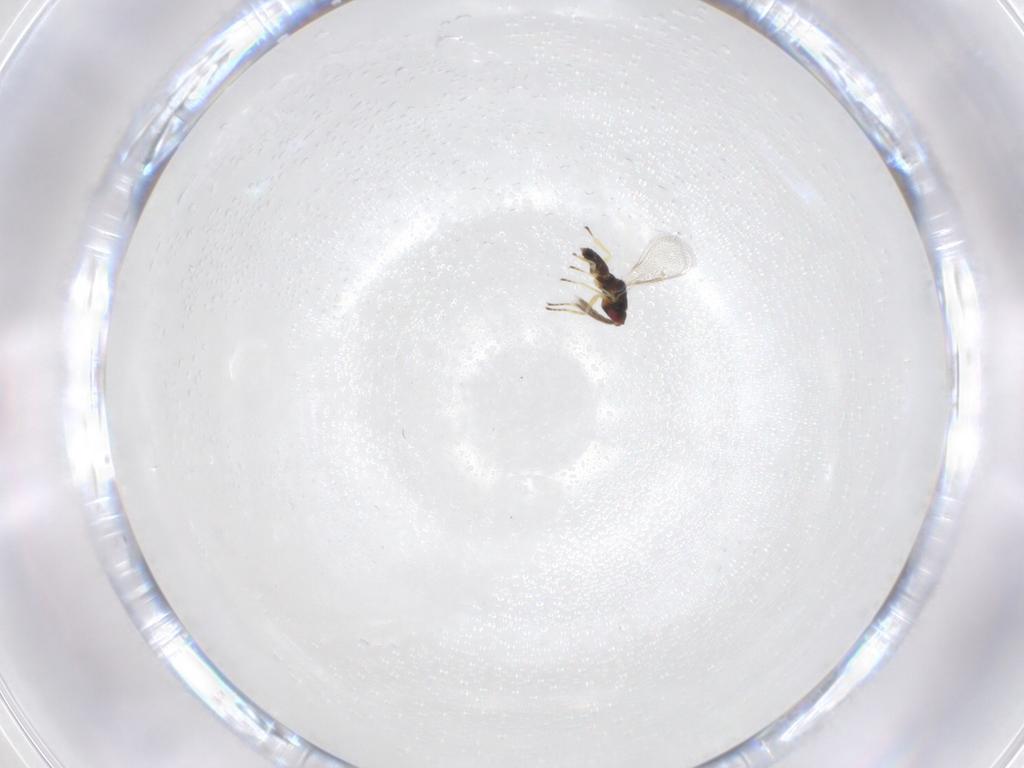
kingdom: Animalia
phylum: Arthropoda
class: Insecta
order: Hymenoptera
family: Eulophidae
